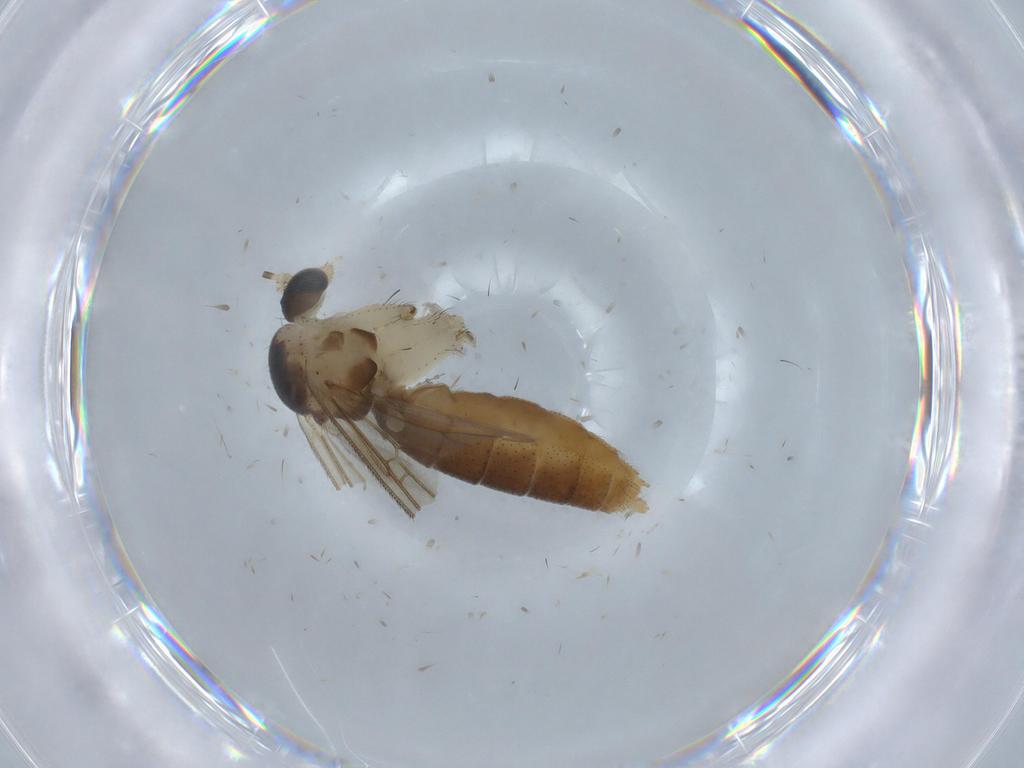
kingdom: Animalia
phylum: Arthropoda
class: Insecta
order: Diptera
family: Mycetophilidae
